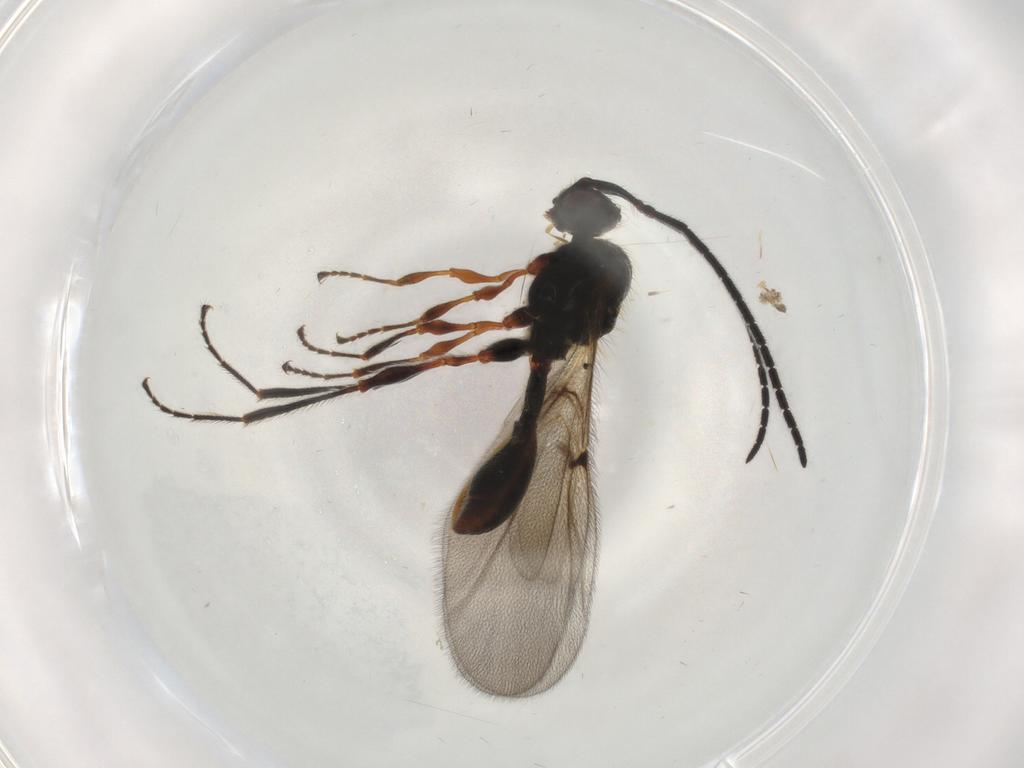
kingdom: Animalia
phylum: Arthropoda
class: Insecta
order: Hymenoptera
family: Diapriidae
